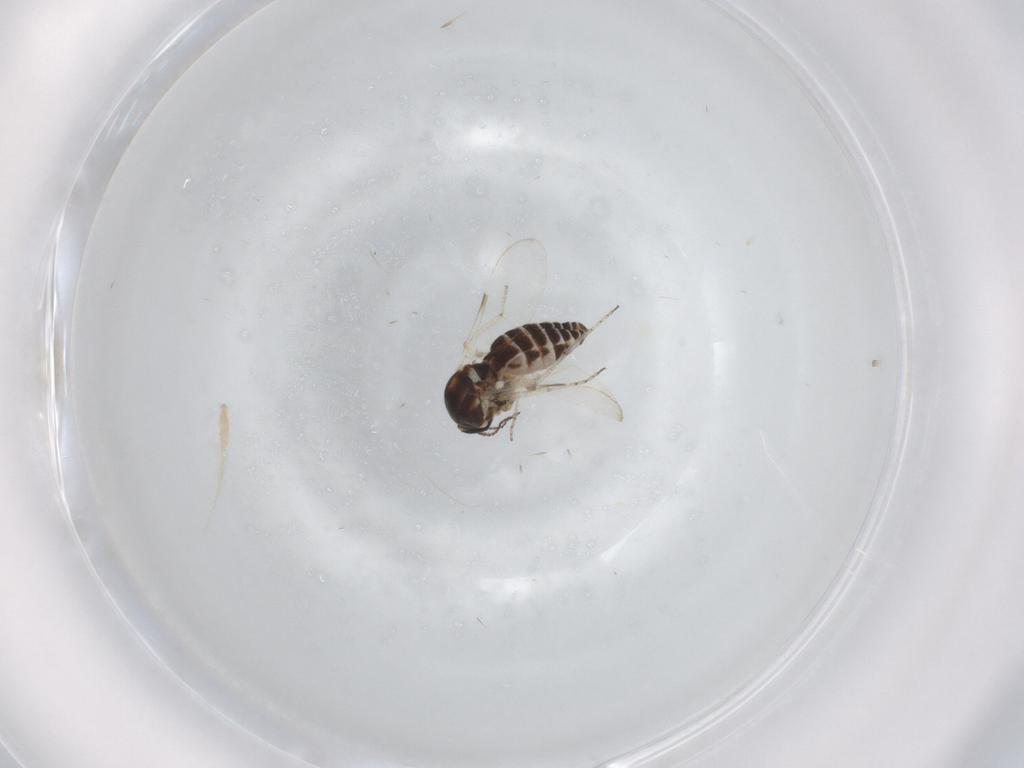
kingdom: Animalia
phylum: Arthropoda
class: Insecta
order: Diptera
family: Ceratopogonidae
